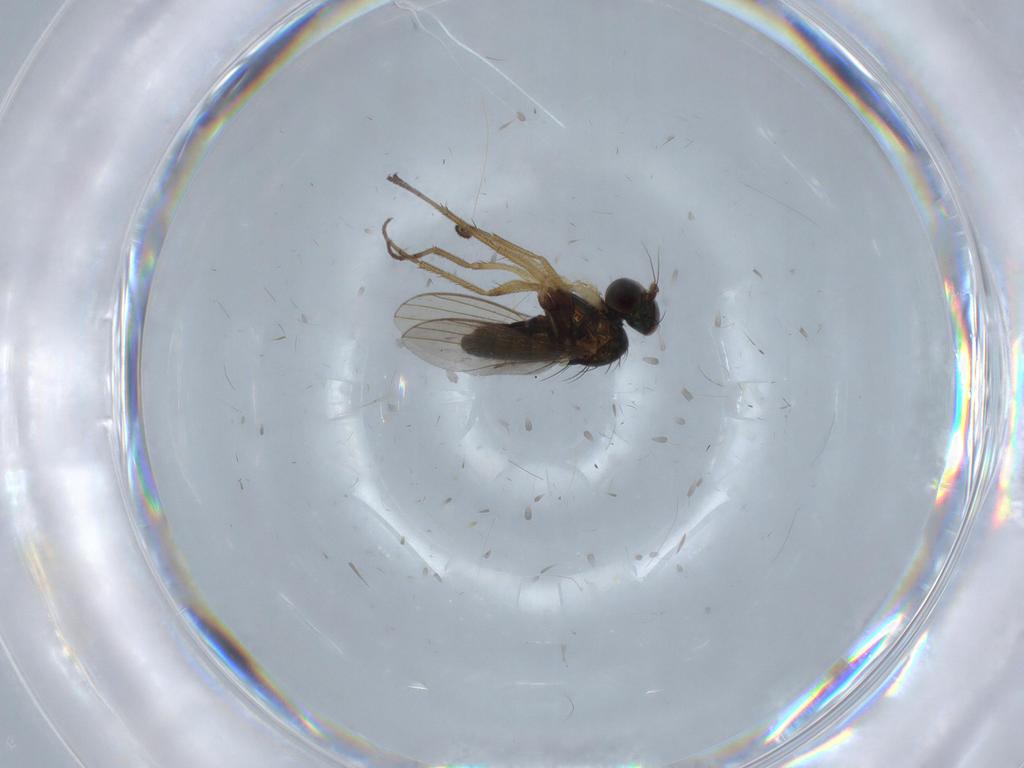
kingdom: Animalia
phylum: Arthropoda
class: Insecta
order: Diptera
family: Dolichopodidae
